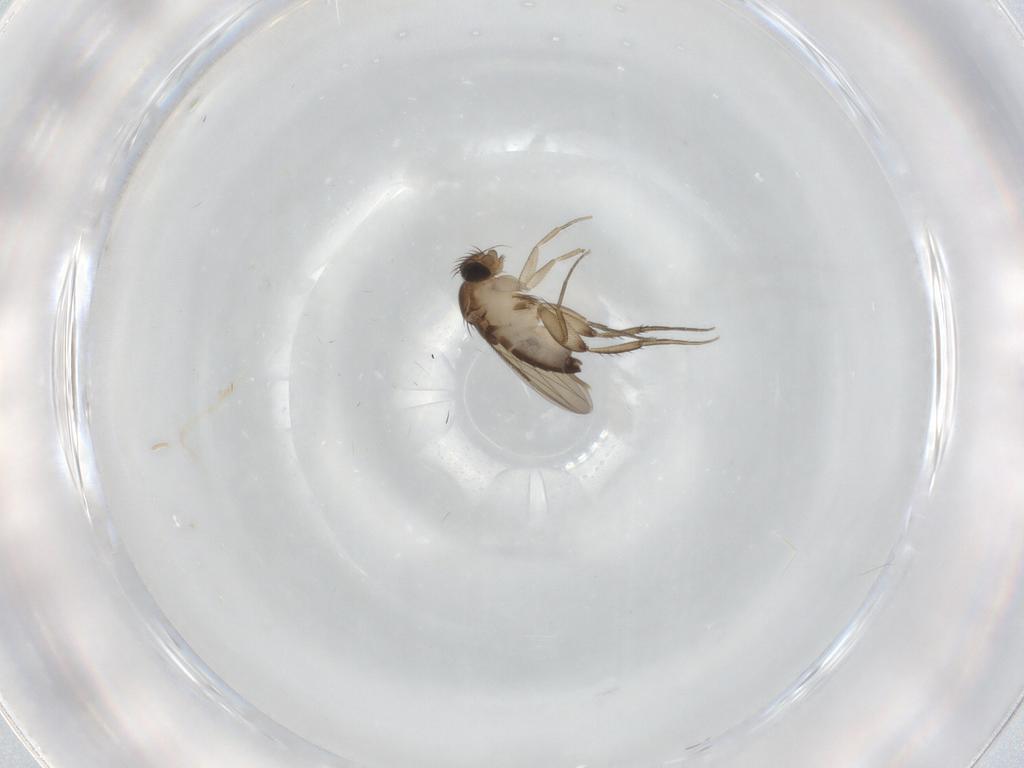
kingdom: Animalia
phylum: Arthropoda
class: Insecta
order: Diptera
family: Phoridae
